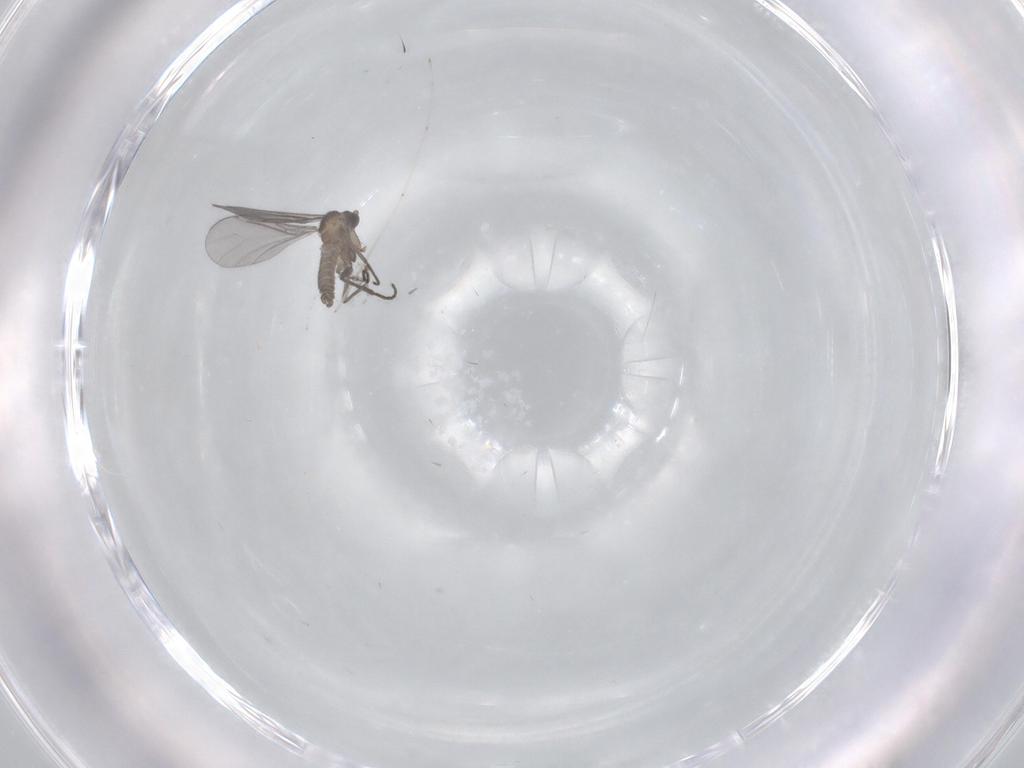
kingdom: Animalia
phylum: Arthropoda
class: Insecta
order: Diptera
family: Sciaridae
